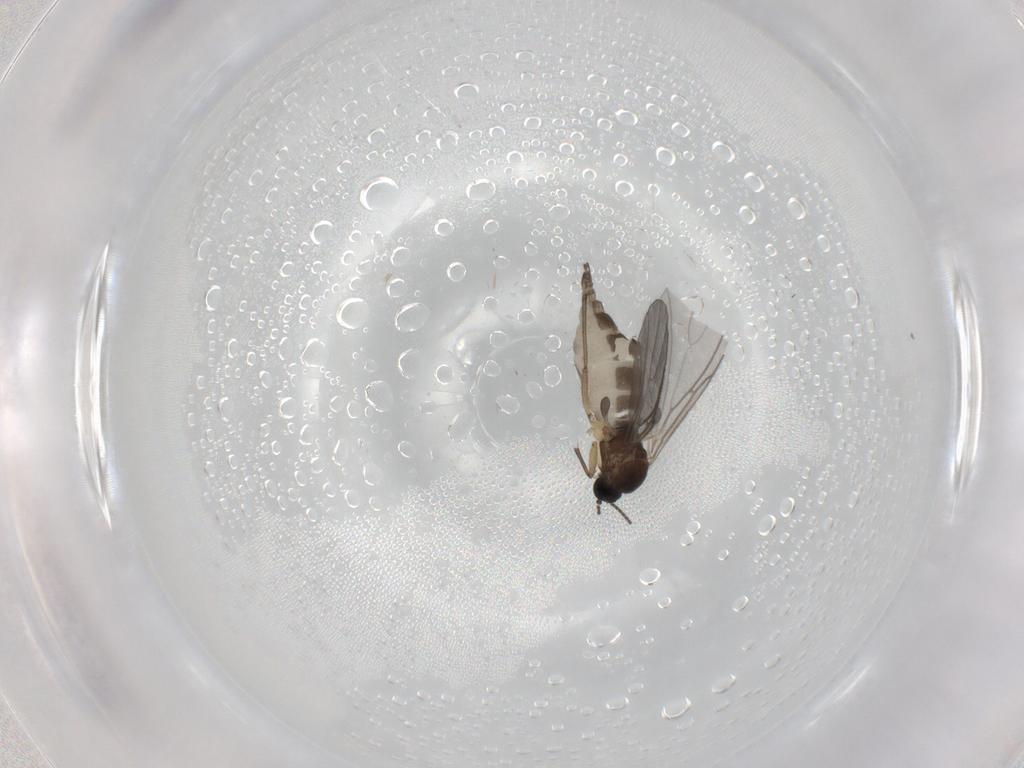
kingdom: Animalia
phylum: Arthropoda
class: Insecta
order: Diptera
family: Sciaridae
